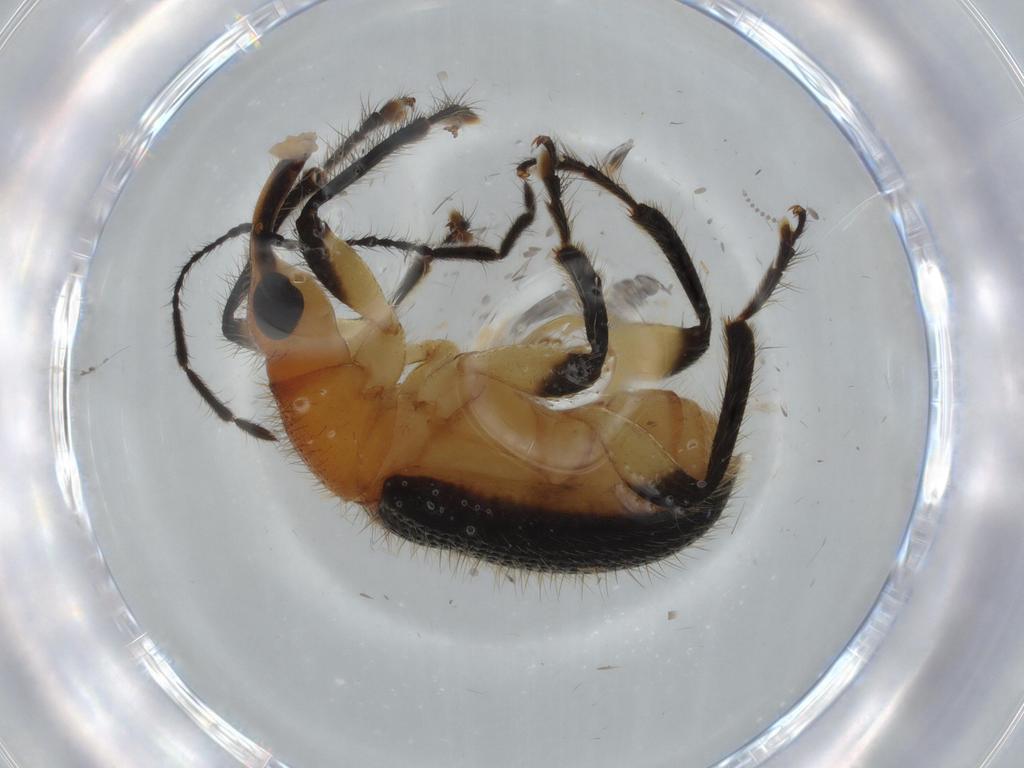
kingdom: Animalia
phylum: Arthropoda
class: Insecta
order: Coleoptera
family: Attelabidae
